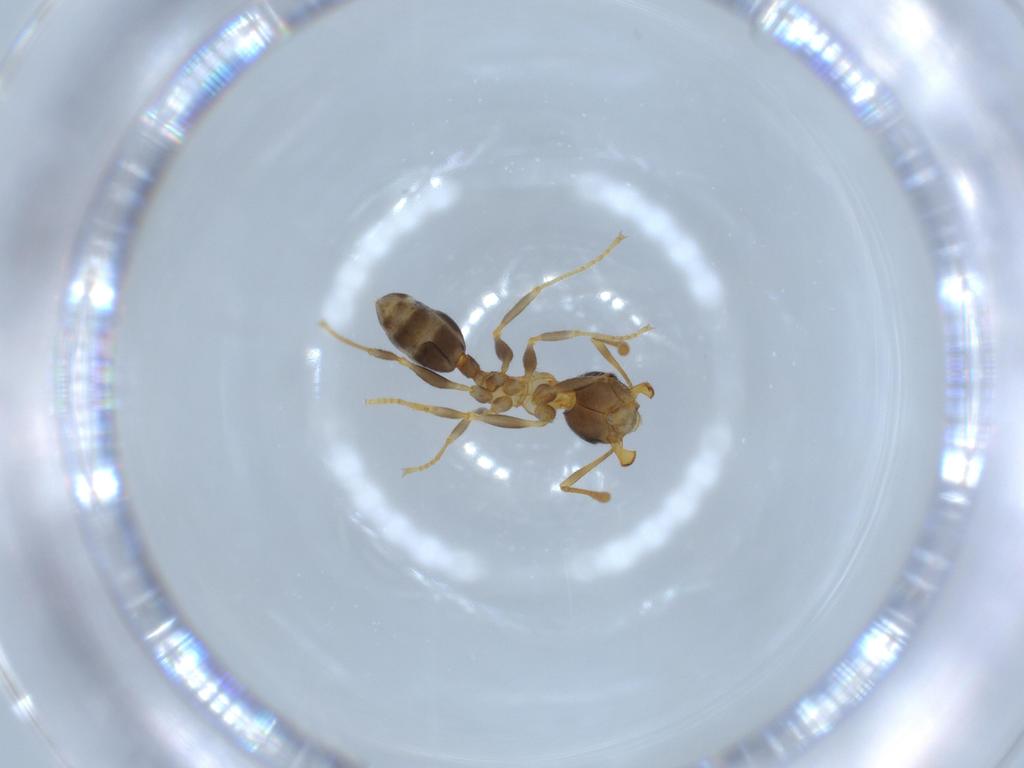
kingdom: Animalia
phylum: Arthropoda
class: Insecta
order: Hymenoptera
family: Formicidae
